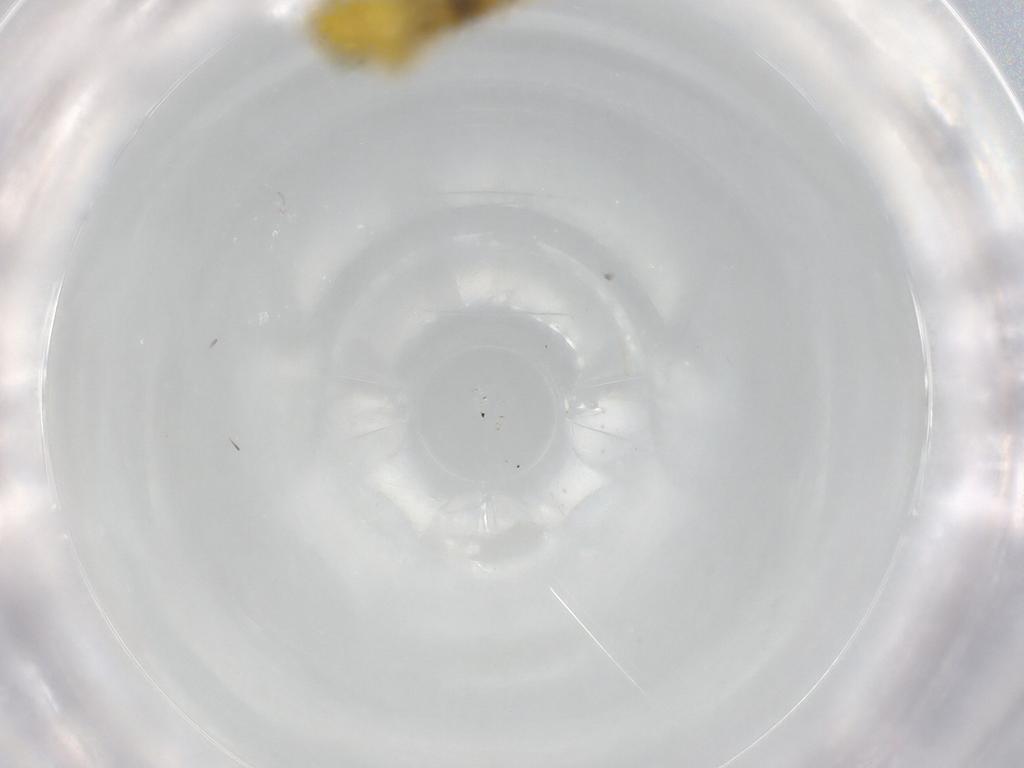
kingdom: Animalia
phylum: Arthropoda
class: Insecta
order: Hemiptera
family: Cicadellidae
